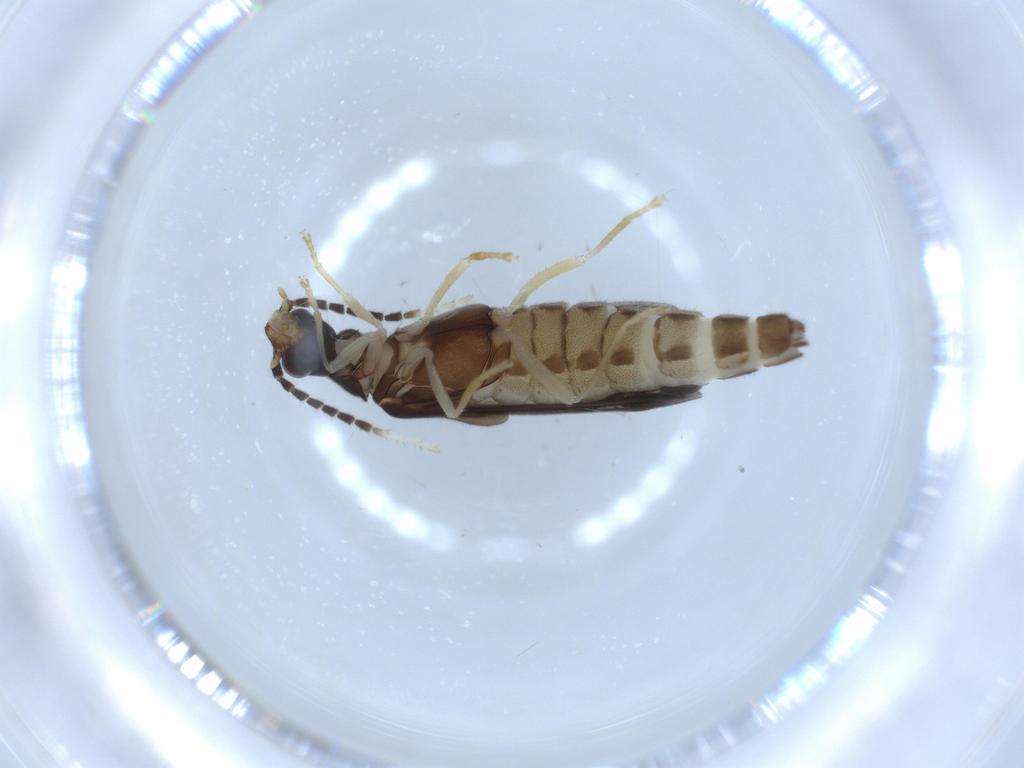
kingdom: Animalia
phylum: Arthropoda
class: Insecta
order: Coleoptera
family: Cantharidae
